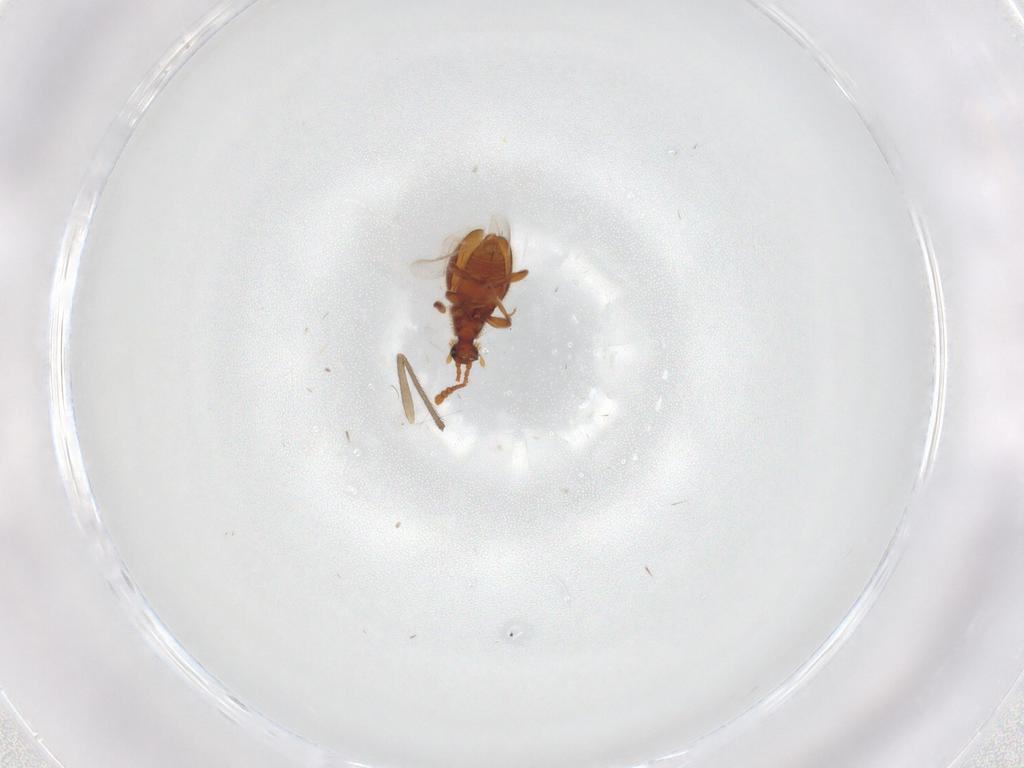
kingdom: Animalia
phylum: Arthropoda
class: Insecta
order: Coleoptera
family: Staphylinidae
